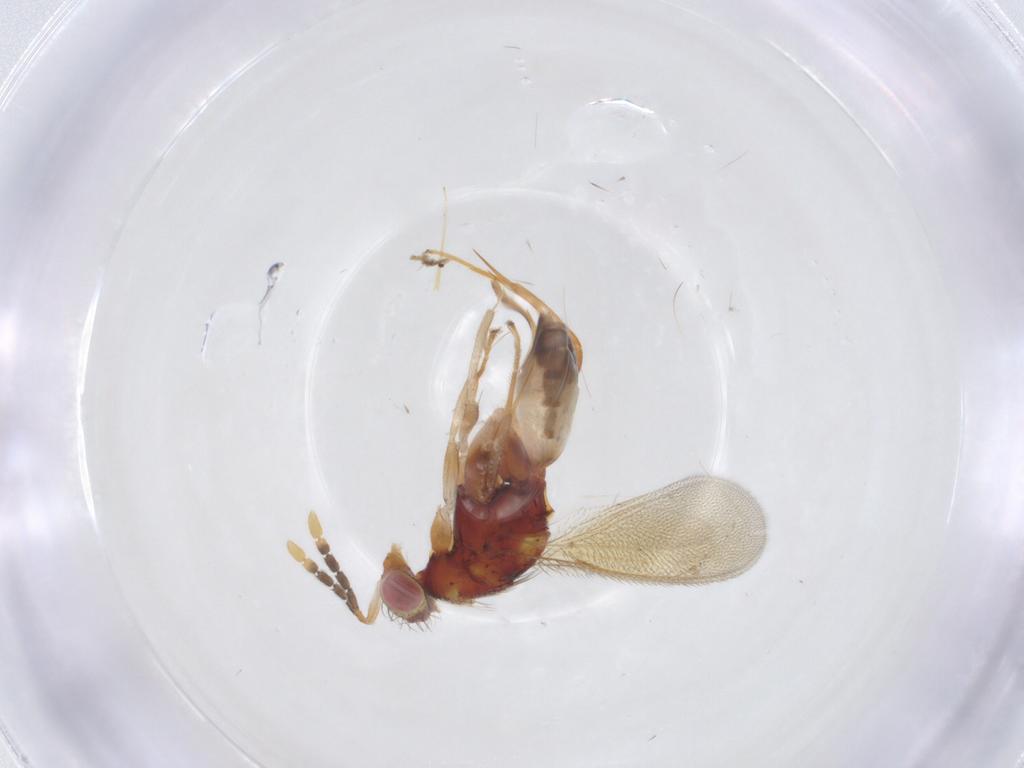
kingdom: Animalia
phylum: Arthropoda
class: Insecta
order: Hymenoptera
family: Eulophidae
